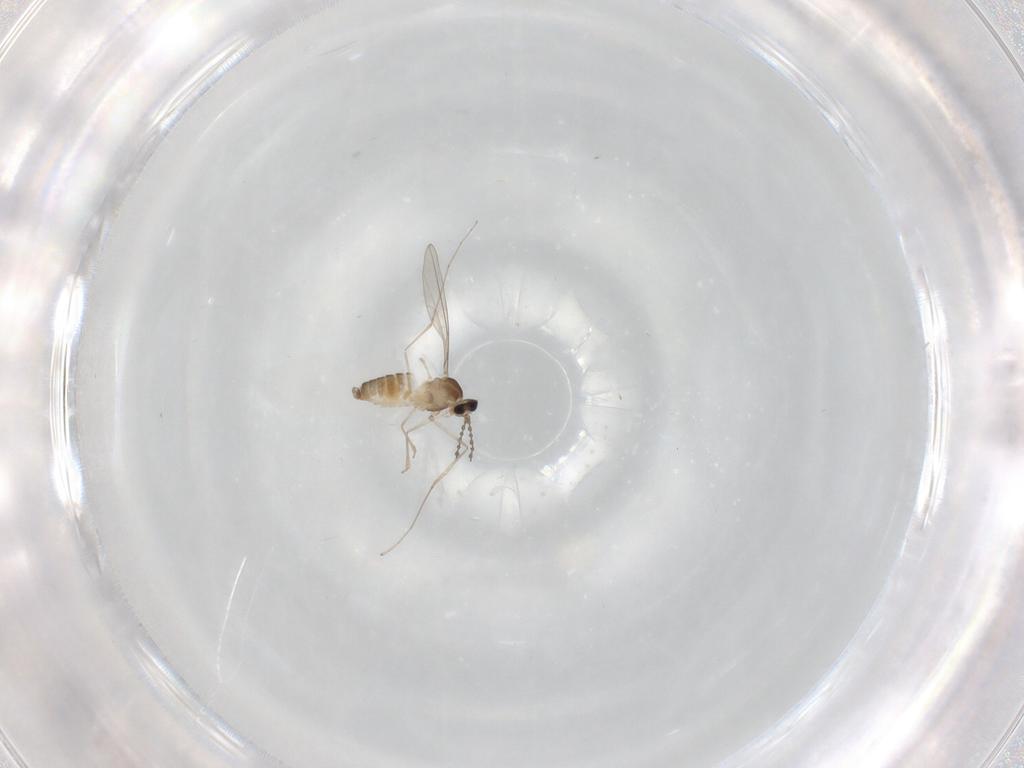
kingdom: Animalia
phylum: Arthropoda
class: Insecta
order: Diptera
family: Cecidomyiidae
